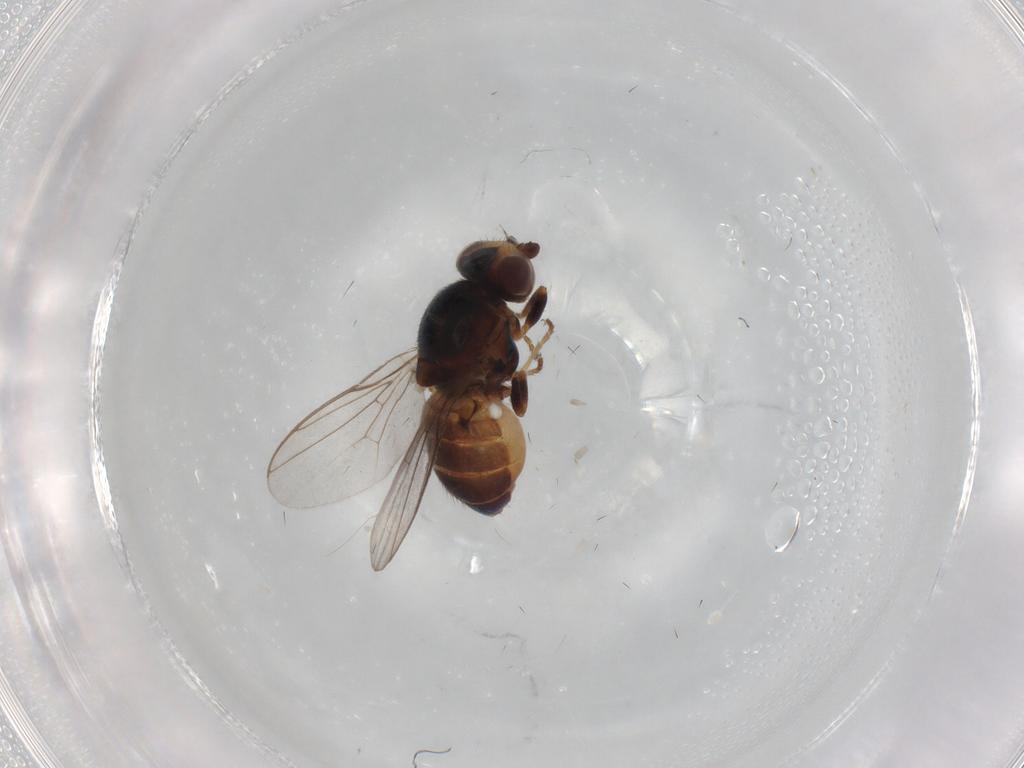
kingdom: Animalia
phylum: Arthropoda
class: Insecta
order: Diptera
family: Chloropidae
